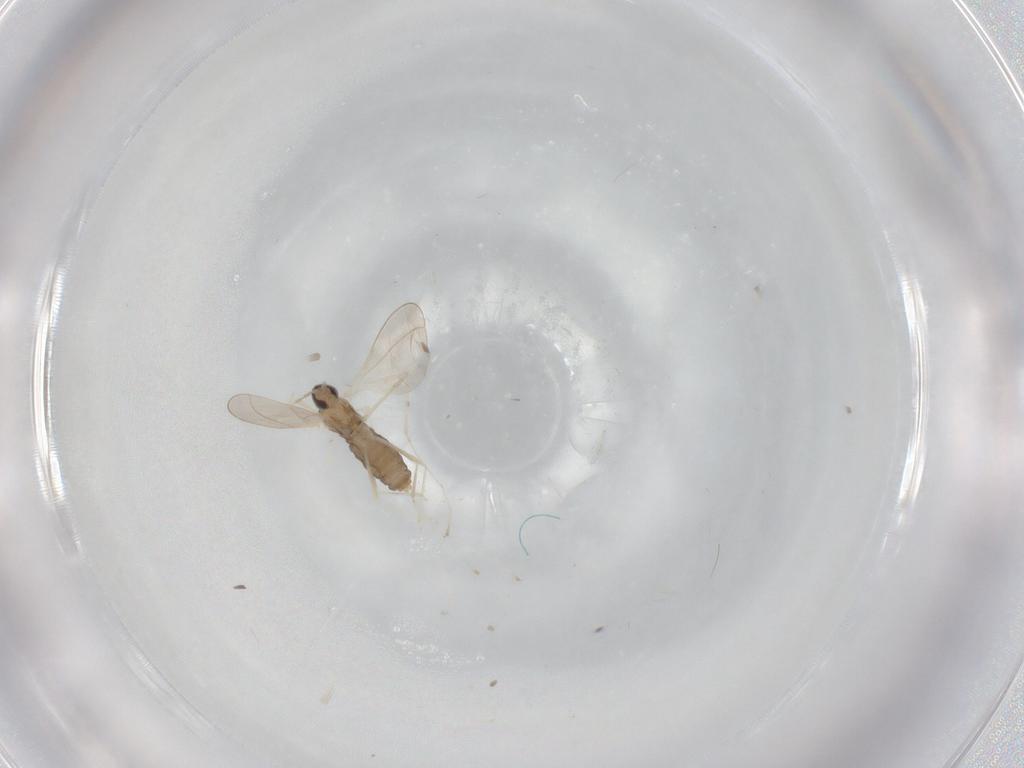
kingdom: Animalia
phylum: Arthropoda
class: Insecta
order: Diptera
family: Cecidomyiidae
